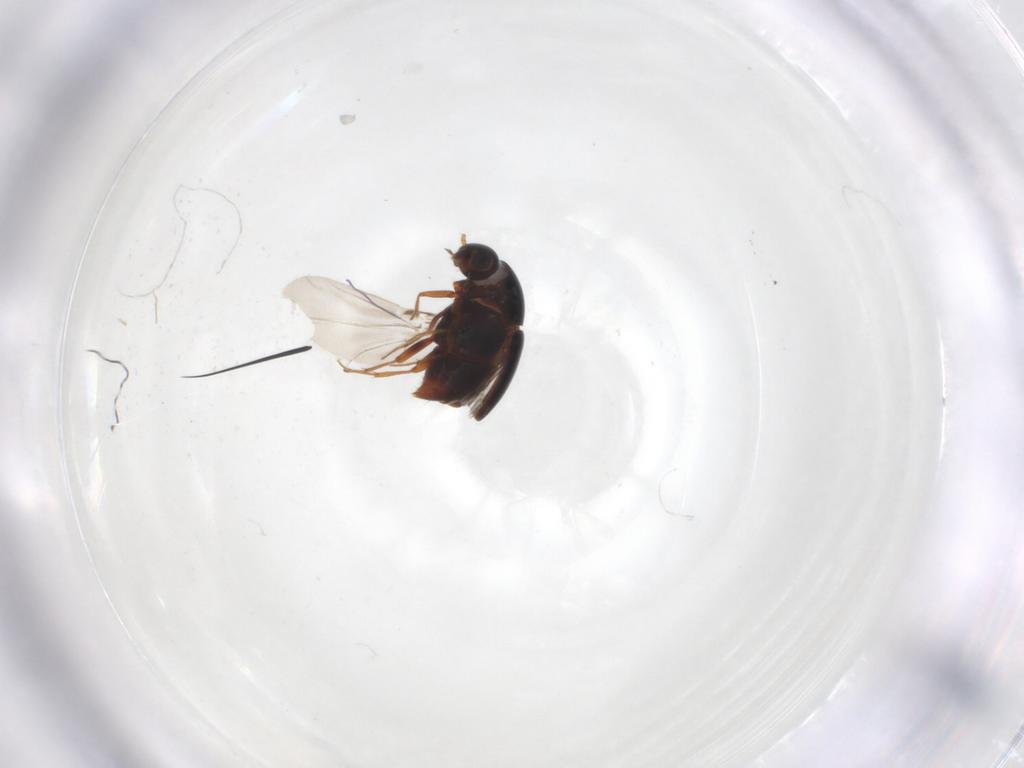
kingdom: Animalia
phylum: Arthropoda
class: Insecta
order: Coleoptera
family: Staphylinidae
